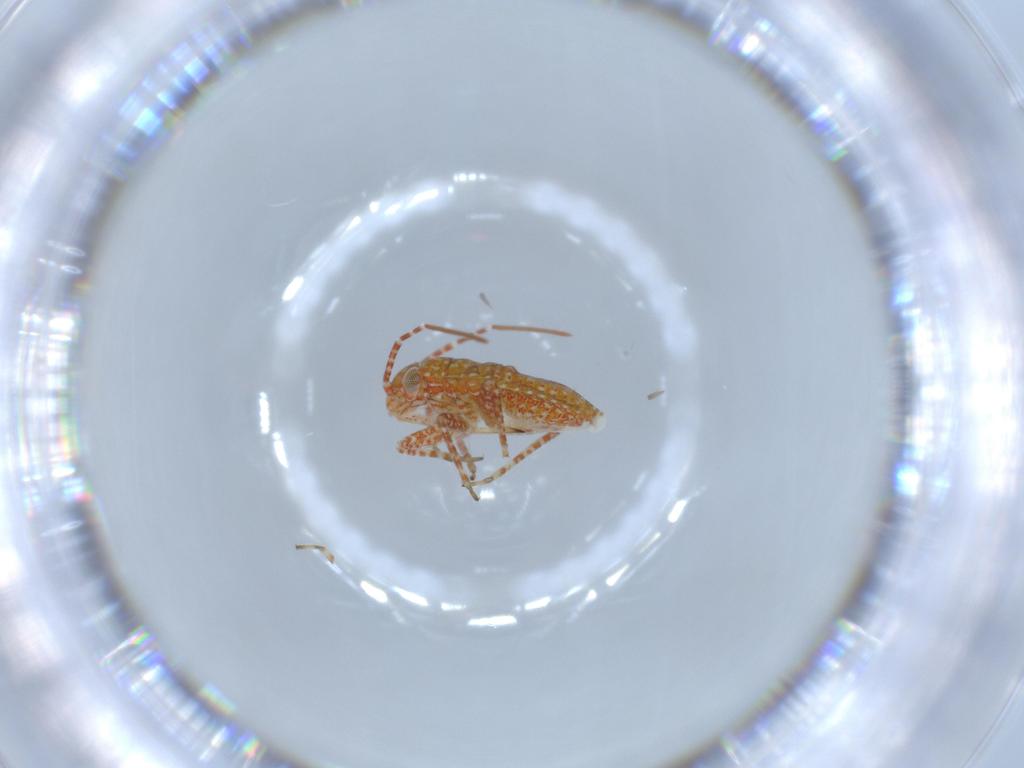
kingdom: Animalia
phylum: Arthropoda
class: Insecta
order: Hemiptera
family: Miridae
